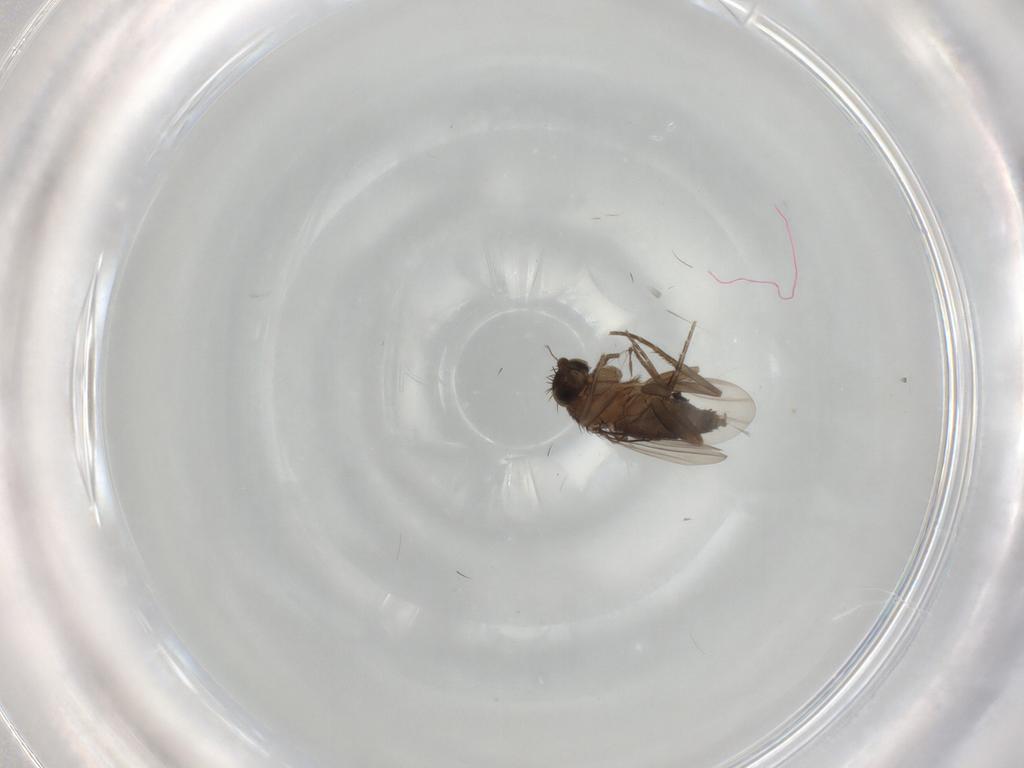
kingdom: Animalia
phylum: Arthropoda
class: Insecta
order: Diptera
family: Phoridae
